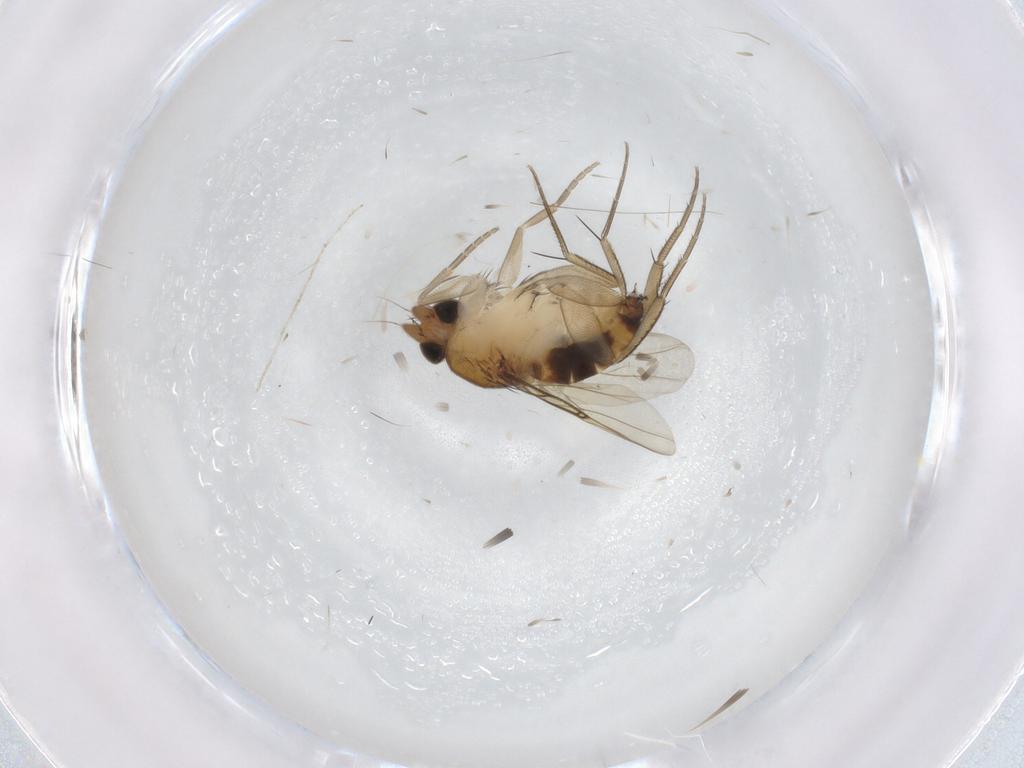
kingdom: Animalia
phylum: Arthropoda
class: Insecta
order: Diptera
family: Phoridae
